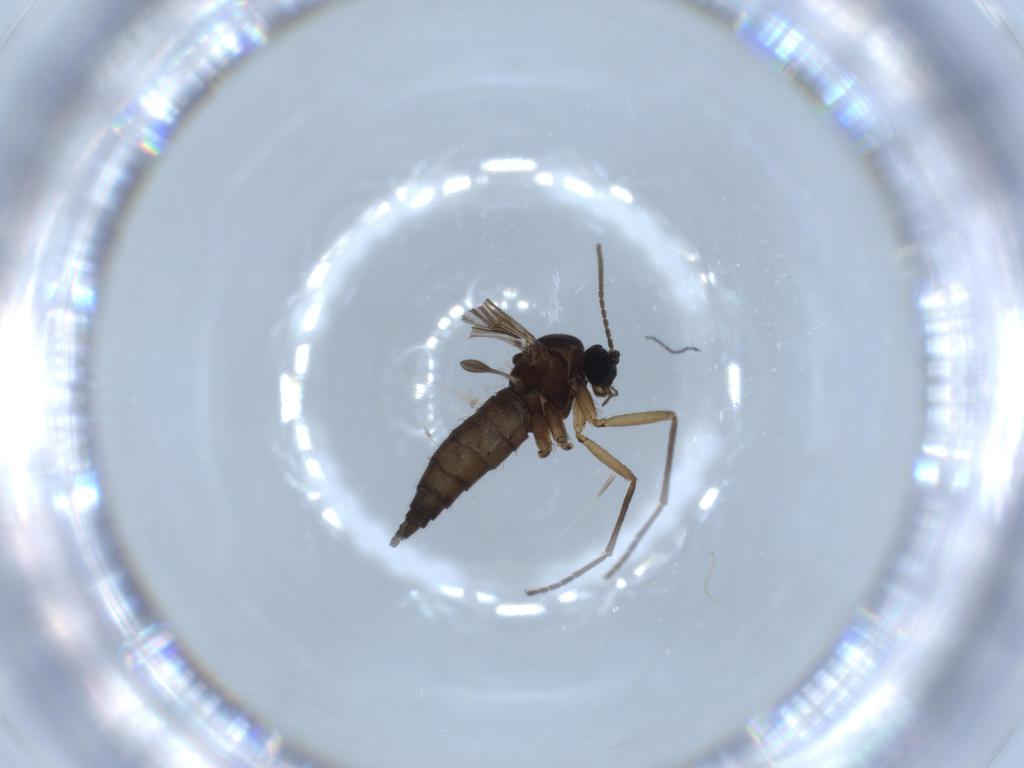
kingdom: Animalia
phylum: Arthropoda
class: Insecta
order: Diptera
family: Sciaridae
